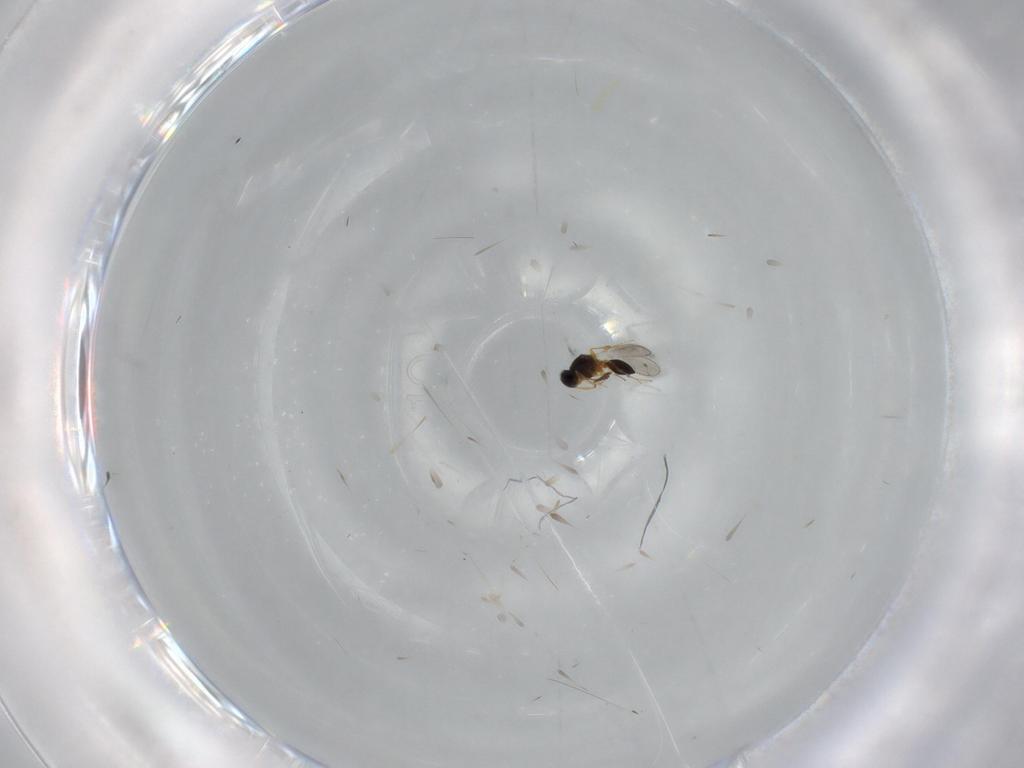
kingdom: Animalia
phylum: Arthropoda
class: Insecta
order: Hymenoptera
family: Platygastridae
